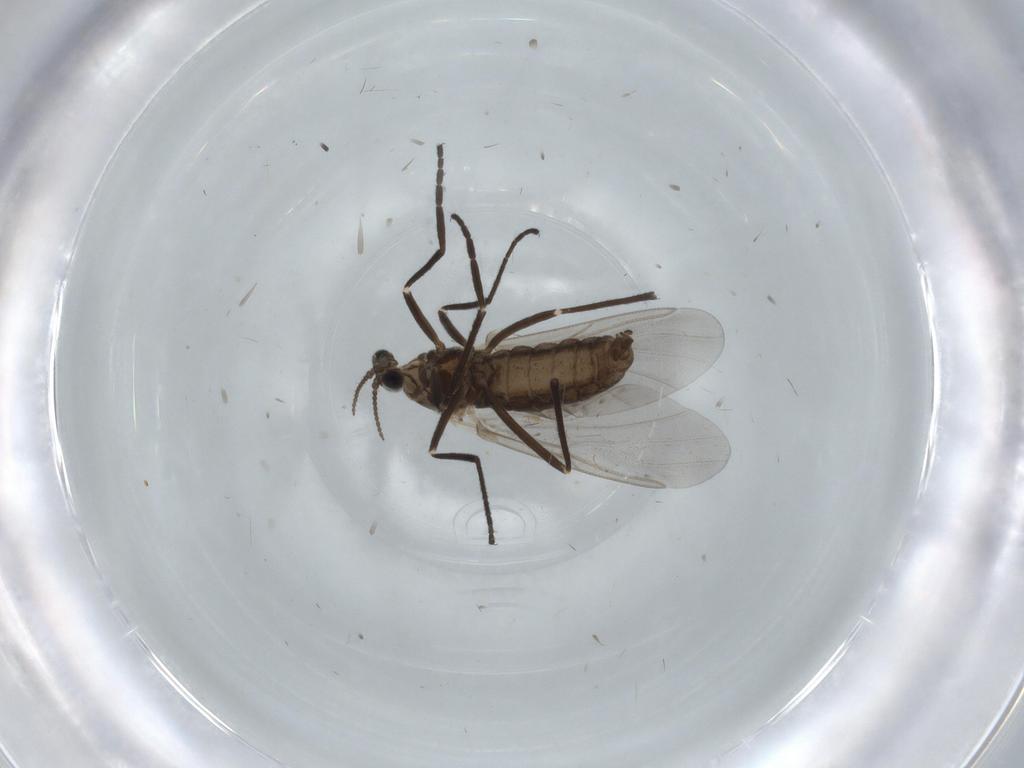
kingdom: Animalia
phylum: Arthropoda
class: Insecta
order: Diptera
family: Cecidomyiidae
